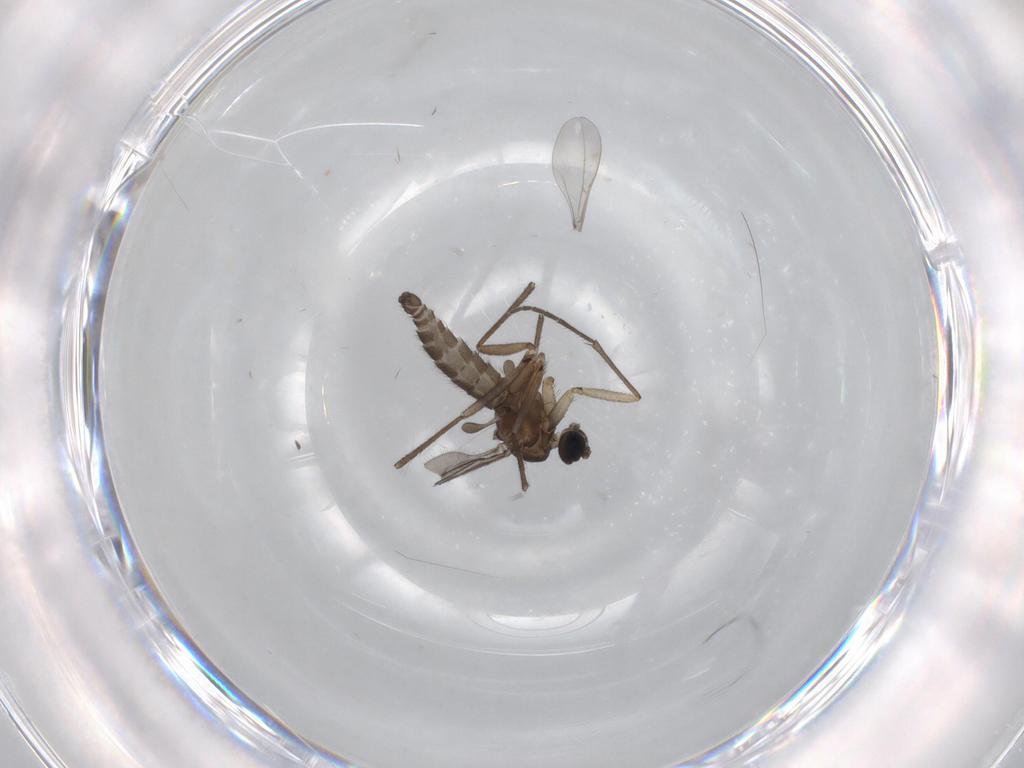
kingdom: Animalia
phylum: Arthropoda
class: Insecta
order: Diptera
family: Sciaridae
